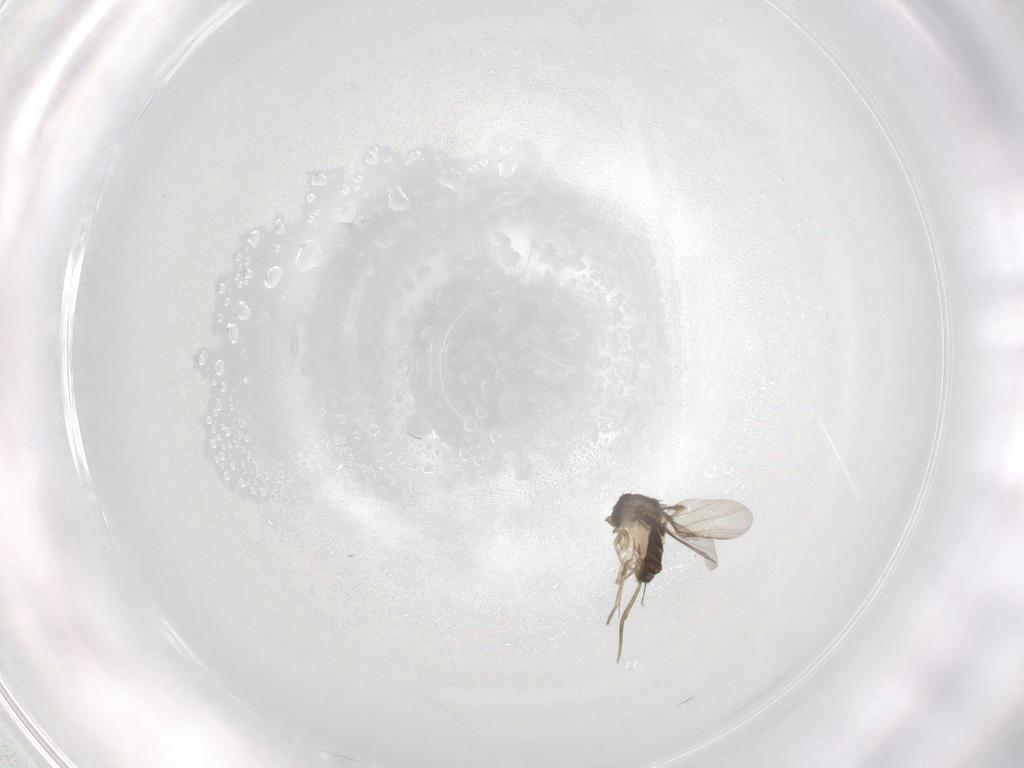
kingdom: Animalia
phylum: Arthropoda
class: Insecta
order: Diptera
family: Phoridae
